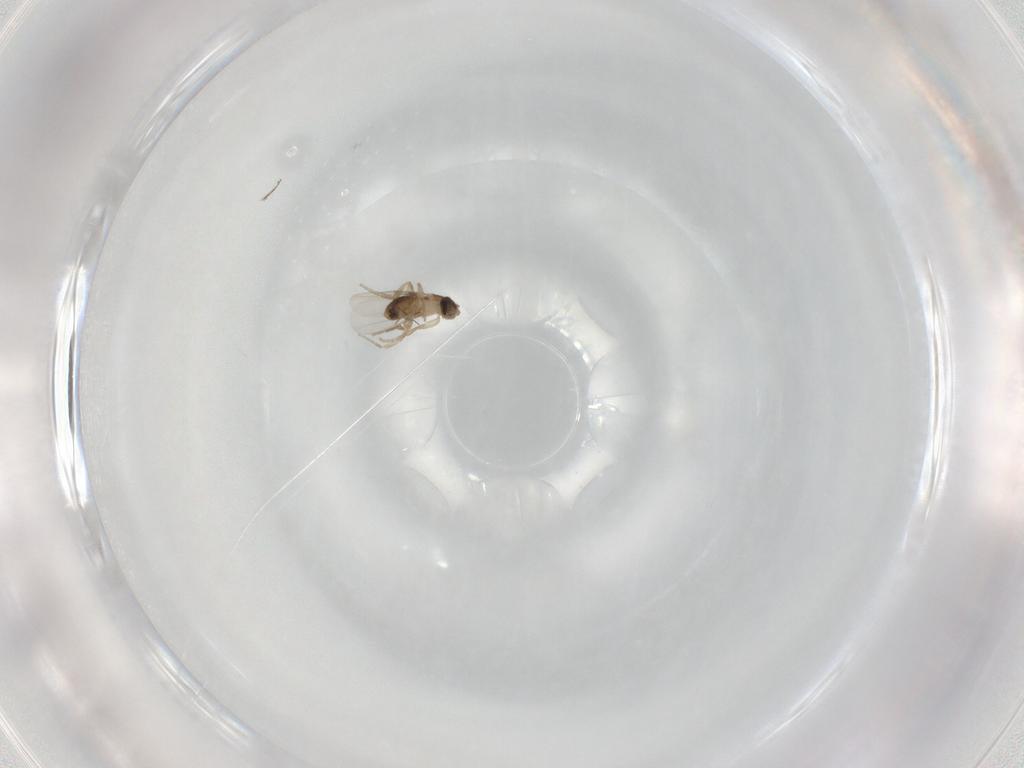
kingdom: Animalia
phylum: Arthropoda
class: Insecta
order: Diptera
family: Phoridae
